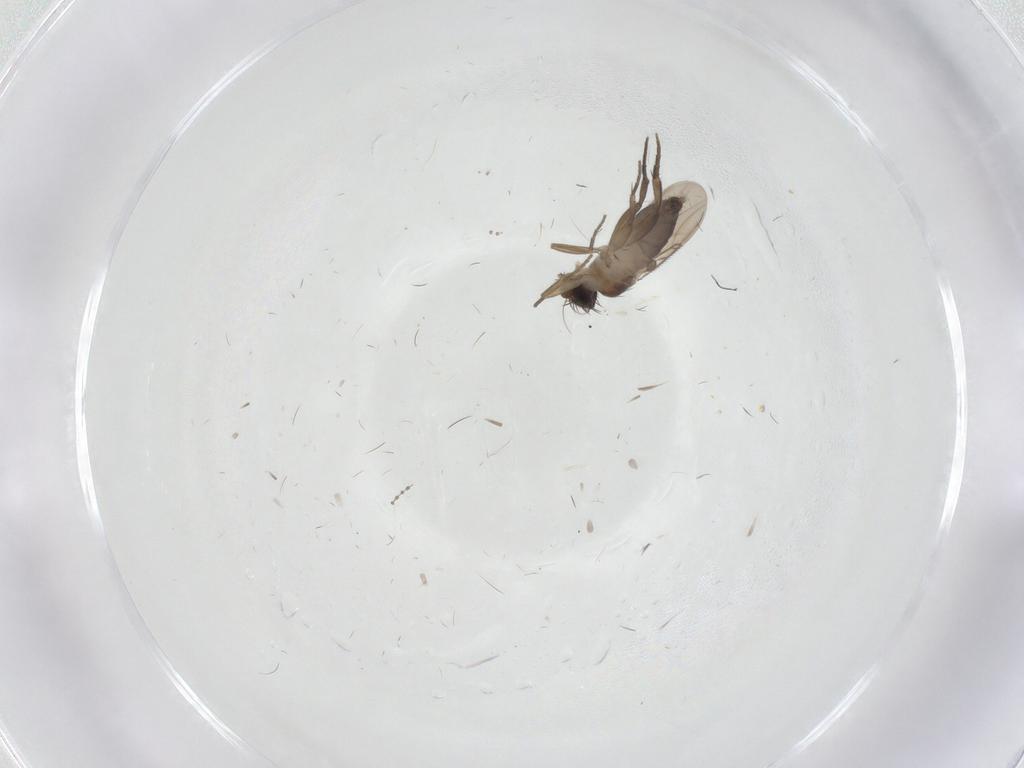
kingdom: Animalia
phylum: Arthropoda
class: Insecta
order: Diptera
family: Phoridae
